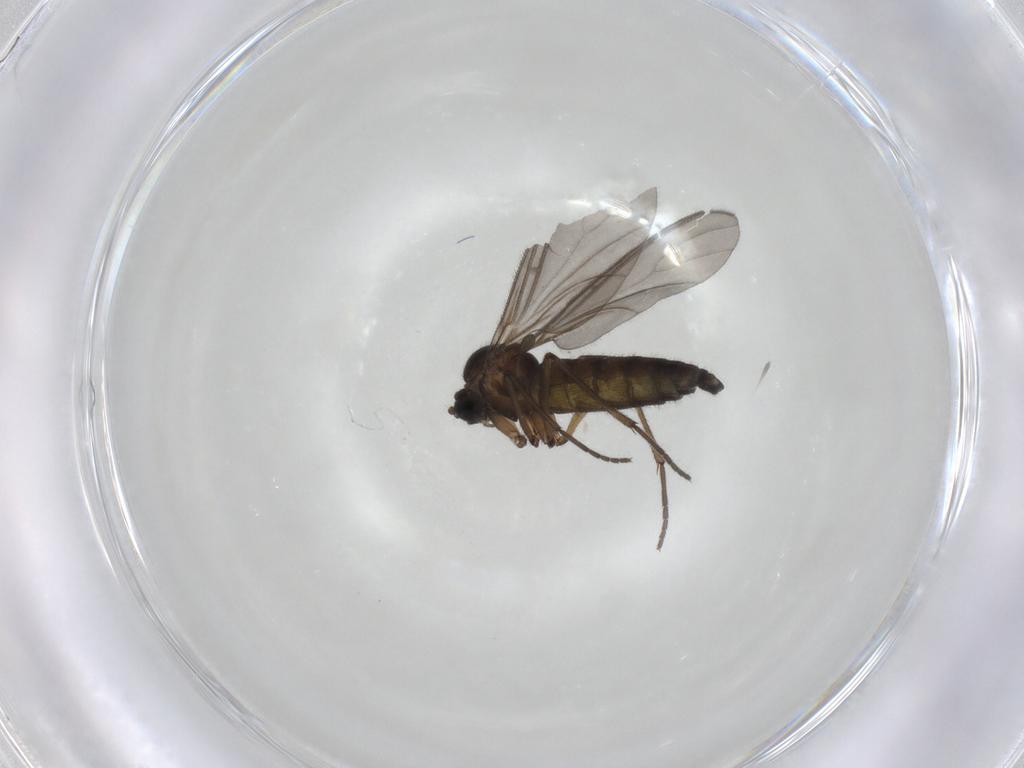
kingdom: Animalia
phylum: Arthropoda
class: Insecta
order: Diptera
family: Sciaridae
